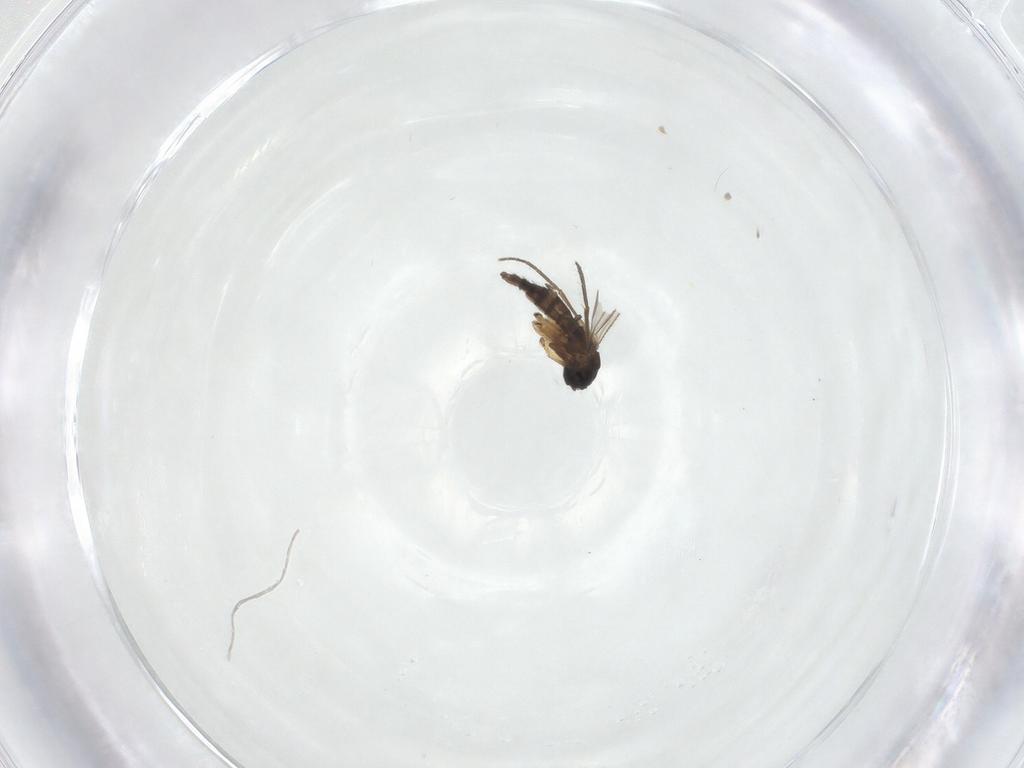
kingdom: Animalia
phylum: Arthropoda
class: Insecta
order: Diptera
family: Sciaridae
